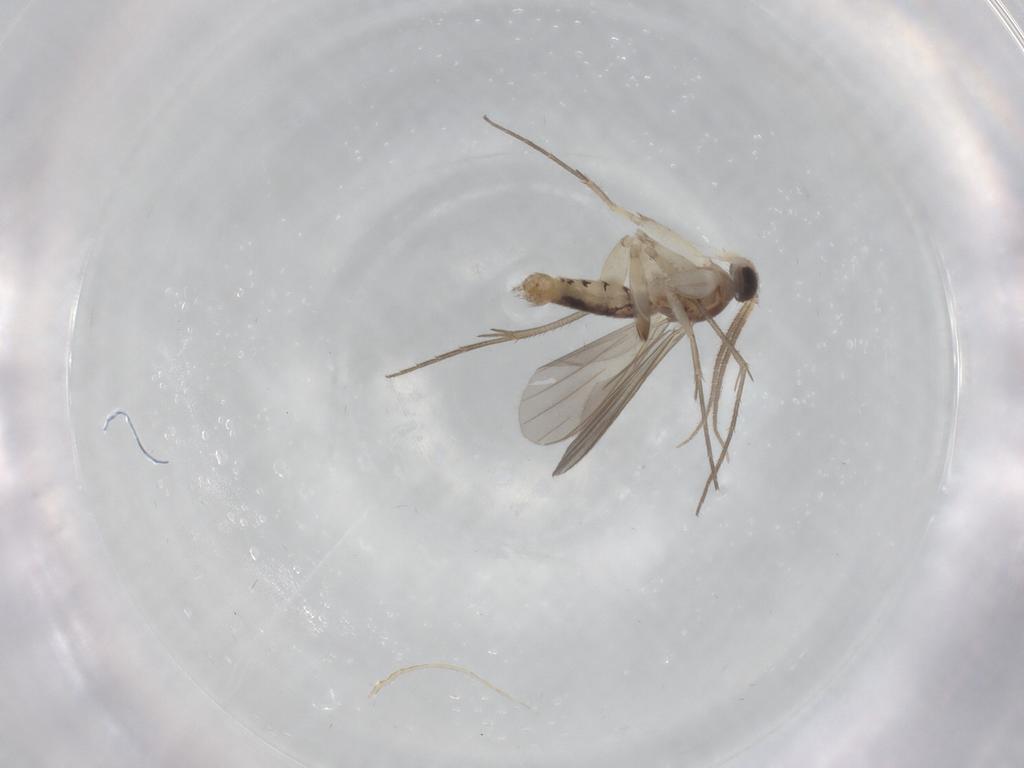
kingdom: Animalia
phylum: Arthropoda
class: Insecta
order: Diptera
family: Mycetophilidae
